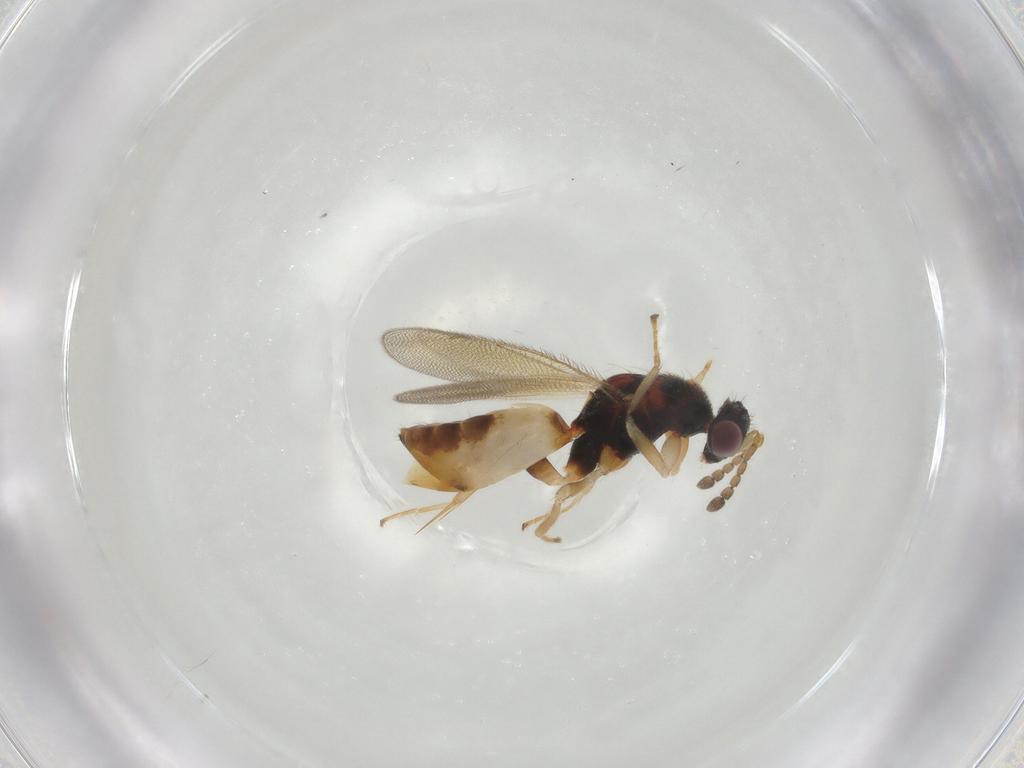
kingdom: Animalia
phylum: Arthropoda
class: Insecta
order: Hymenoptera
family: Eulophidae
